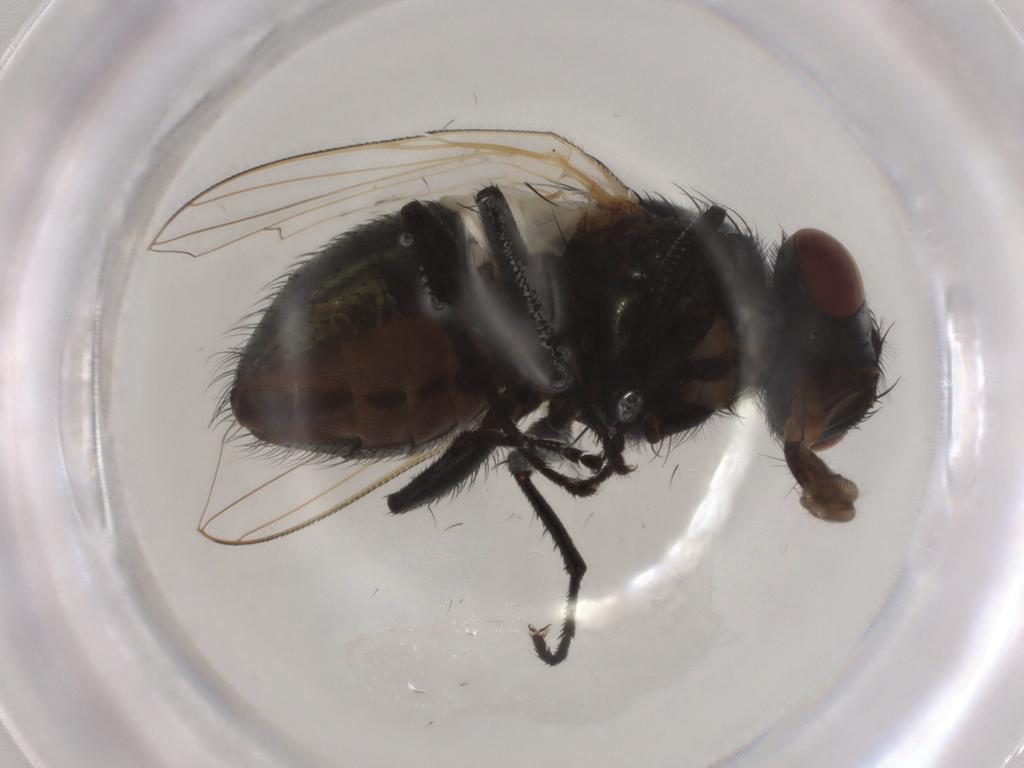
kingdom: Animalia
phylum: Arthropoda
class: Insecta
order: Diptera
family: Muscidae
